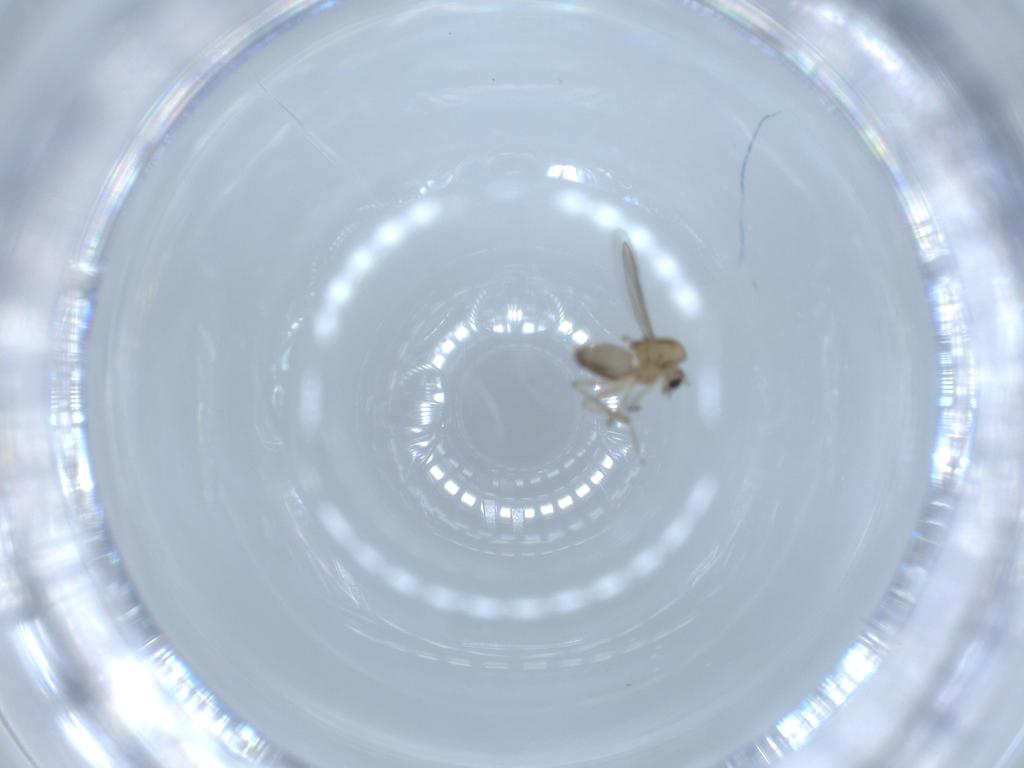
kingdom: Animalia
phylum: Arthropoda
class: Insecta
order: Diptera
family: Chironomidae
